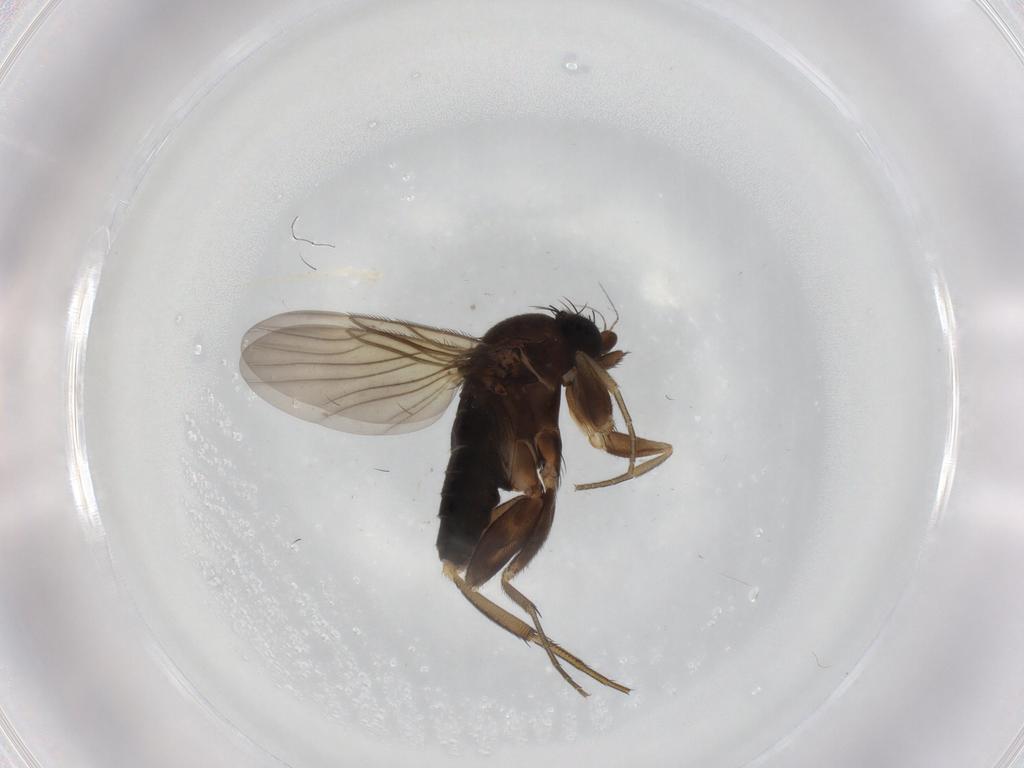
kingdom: Animalia
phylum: Arthropoda
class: Insecta
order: Diptera
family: Phoridae
